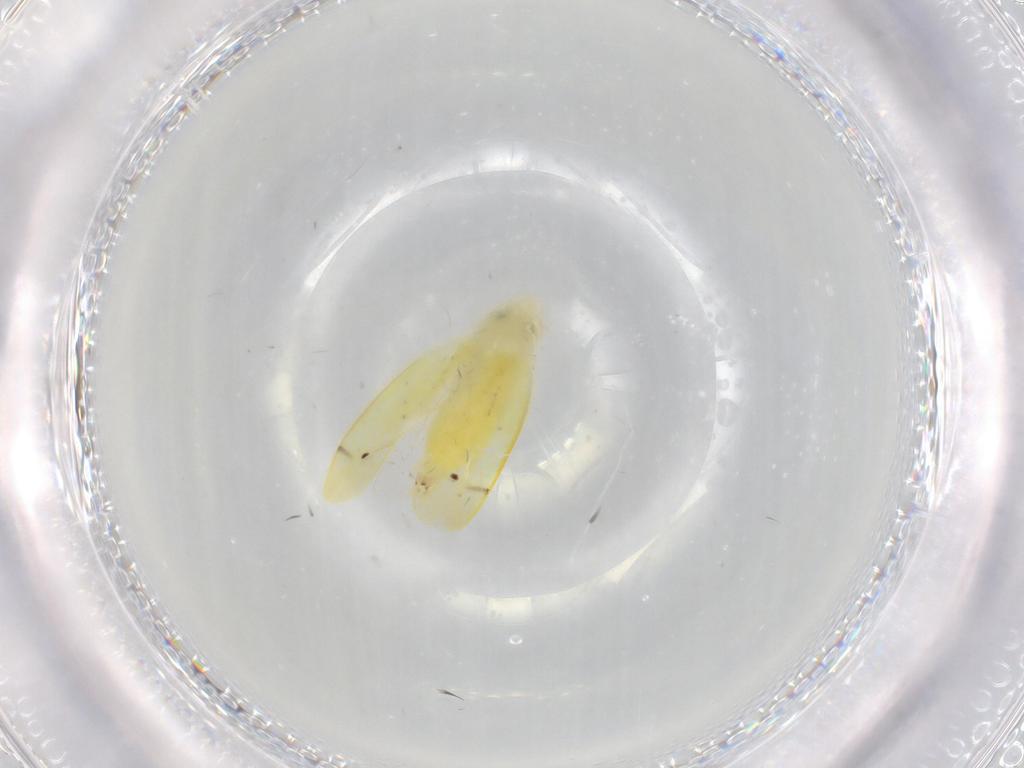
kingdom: Animalia
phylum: Arthropoda
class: Insecta
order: Hemiptera
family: Cicadellidae
